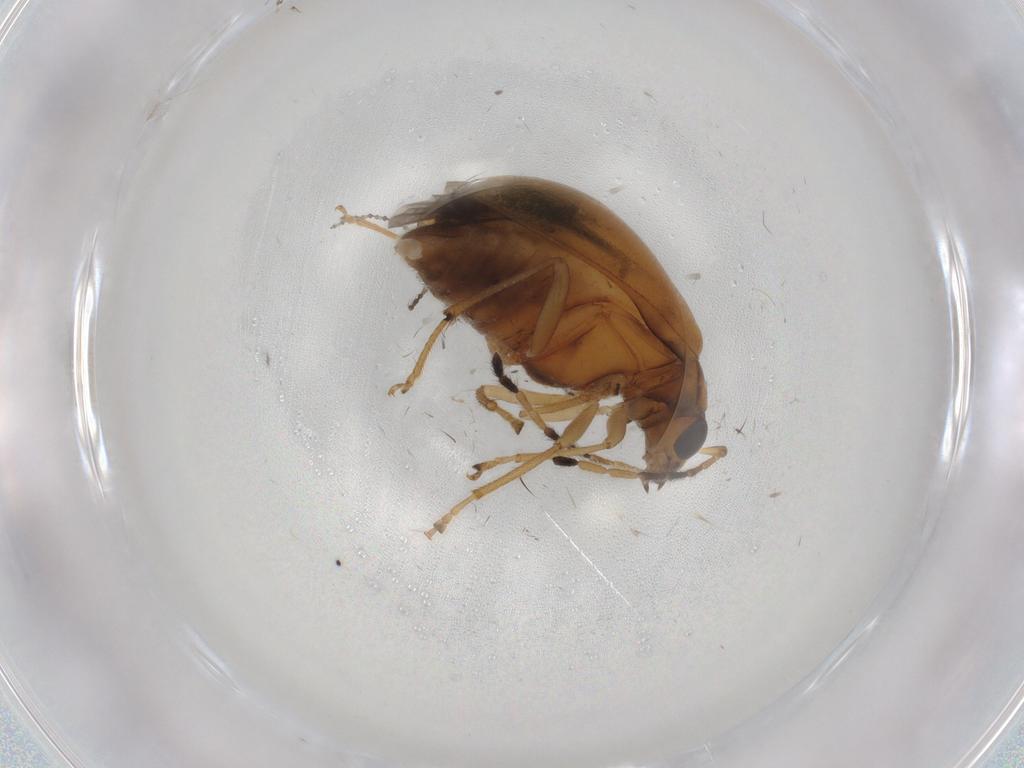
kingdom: Animalia
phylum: Arthropoda
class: Insecta
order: Coleoptera
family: Chrysomelidae
